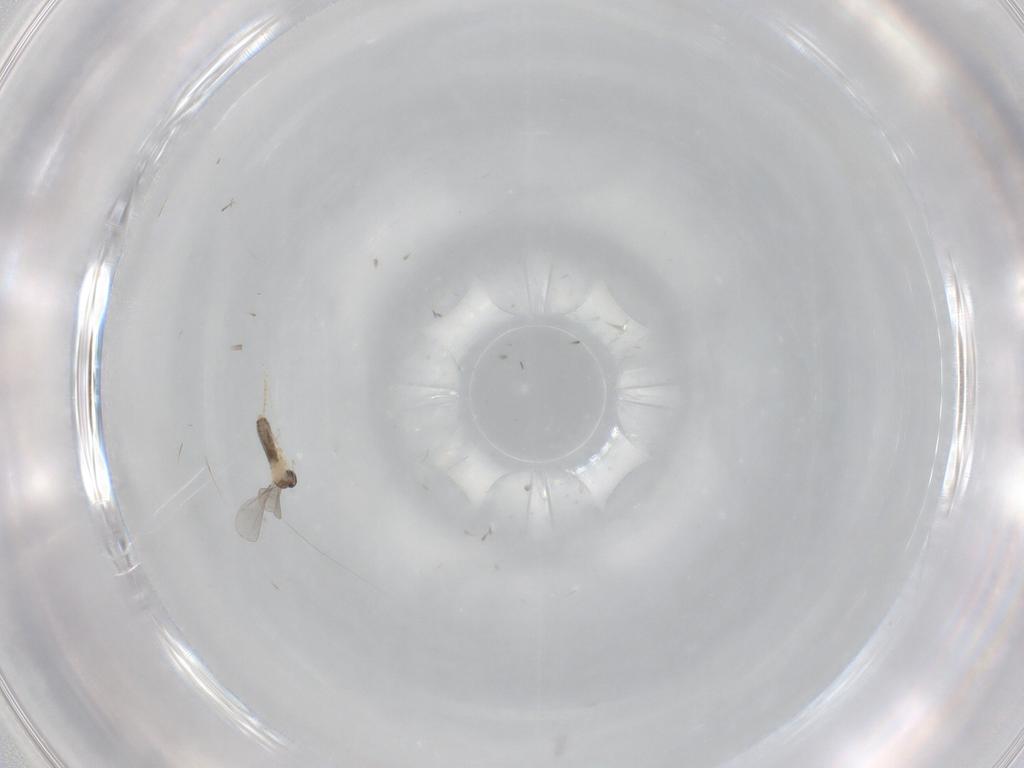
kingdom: Animalia
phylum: Arthropoda
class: Insecta
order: Diptera
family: Cecidomyiidae
